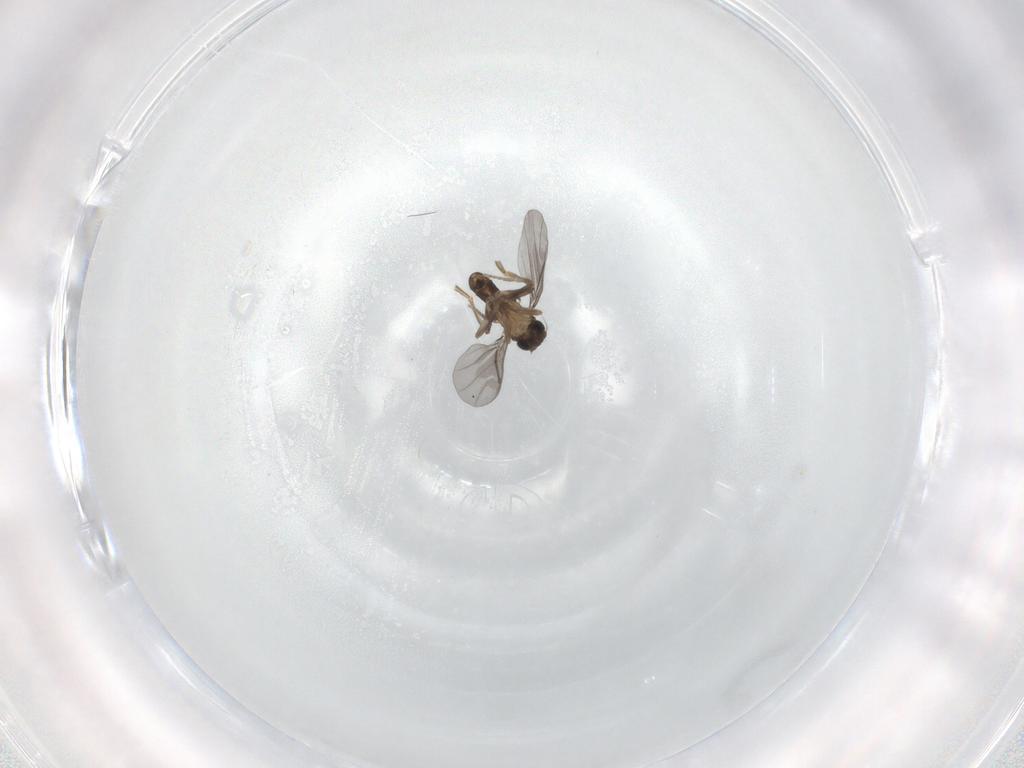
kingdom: Animalia
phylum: Arthropoda
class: Insecta
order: Diptera
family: Phoridae
